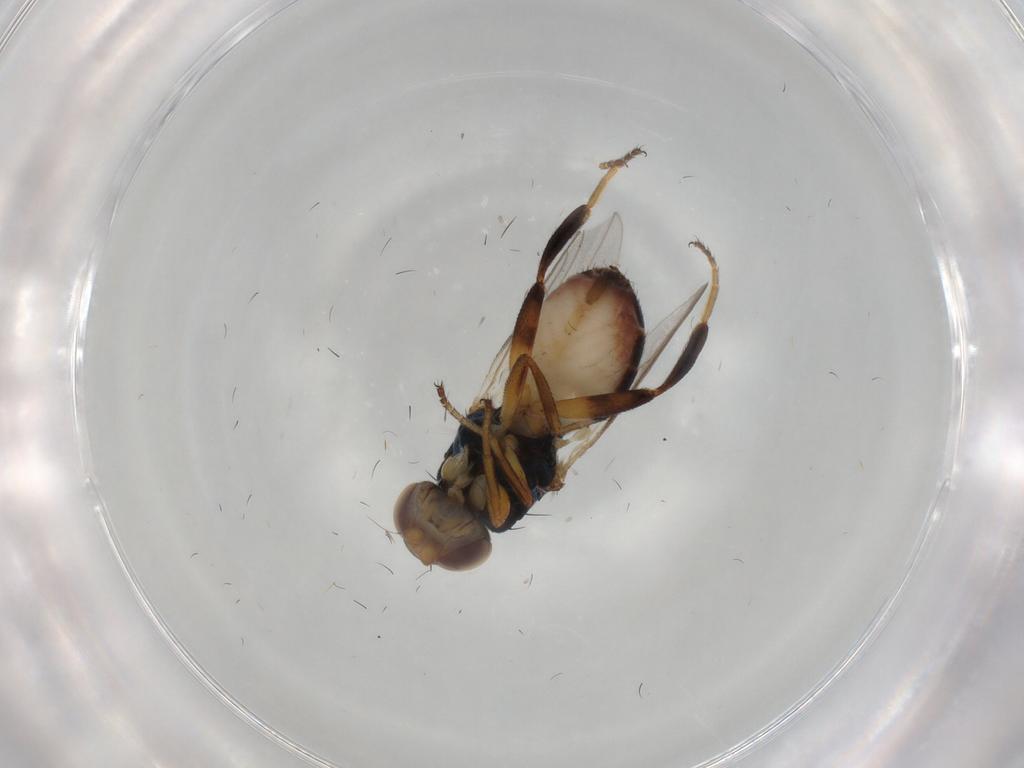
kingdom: Animalia
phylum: Arthropoda
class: Insecta
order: Diptera
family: Chloropidae
